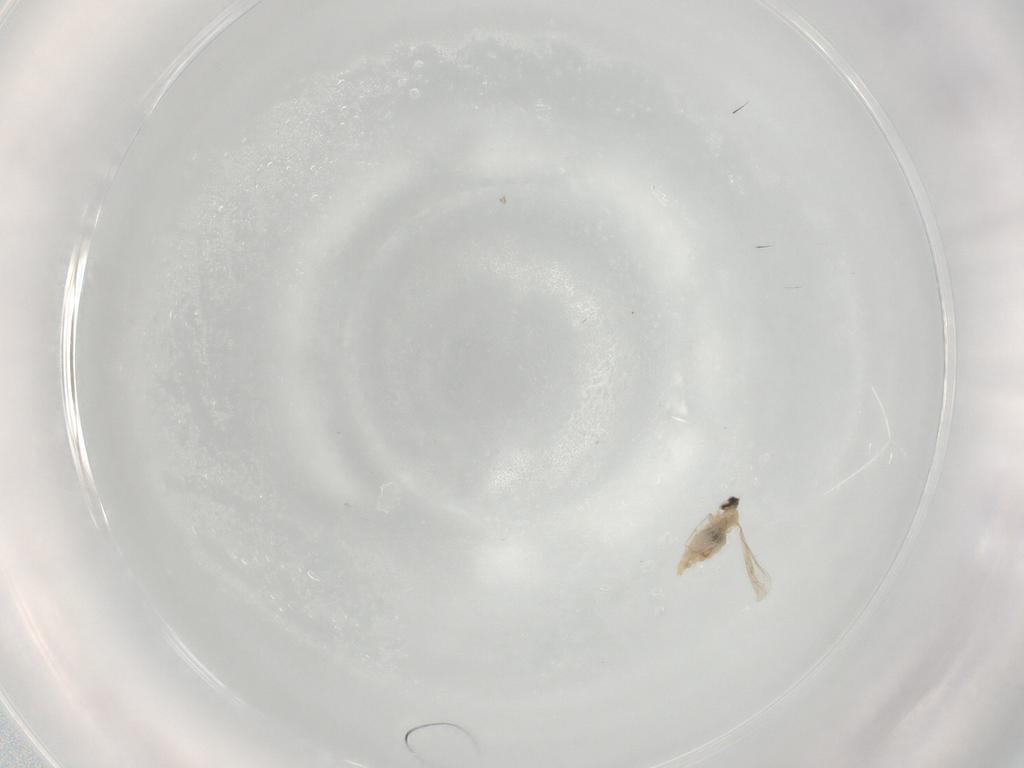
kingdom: Animalia
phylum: Arthropoda
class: Insecta
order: Diptera
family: Cecidomyiidae
